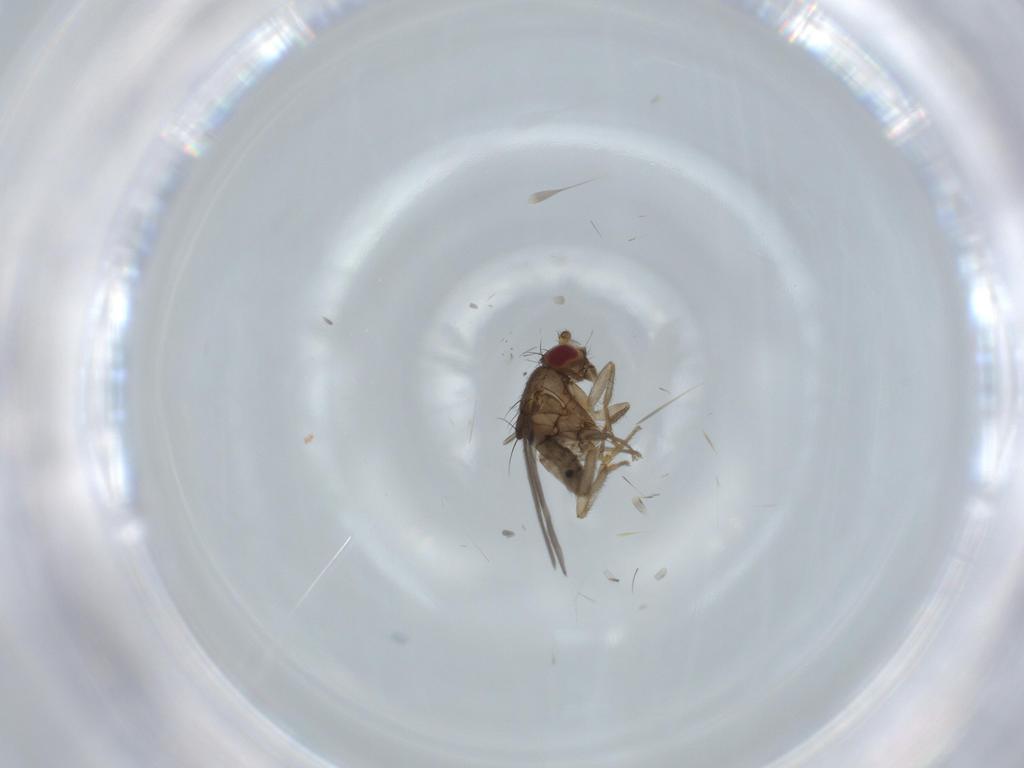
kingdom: Animalia
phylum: Arthropoda
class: Insecta
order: Diptera
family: Sphaeroceridae
